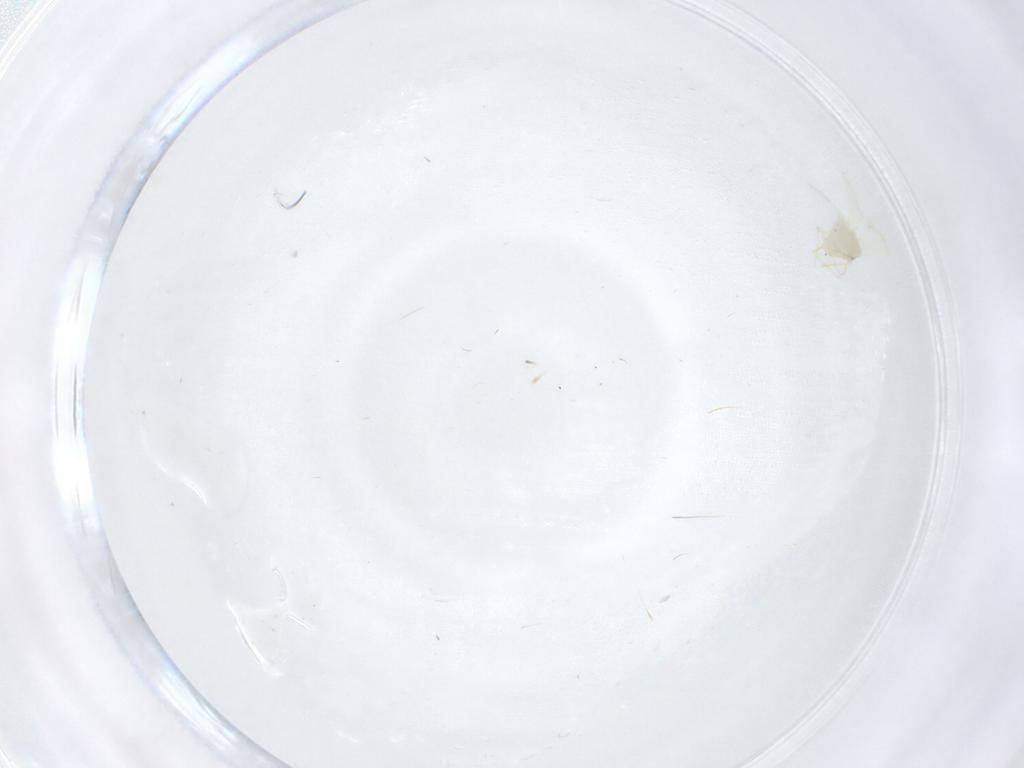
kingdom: Animalia
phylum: Arthropoda
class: Insecta
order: Hemiptera
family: Aleyrodidae
